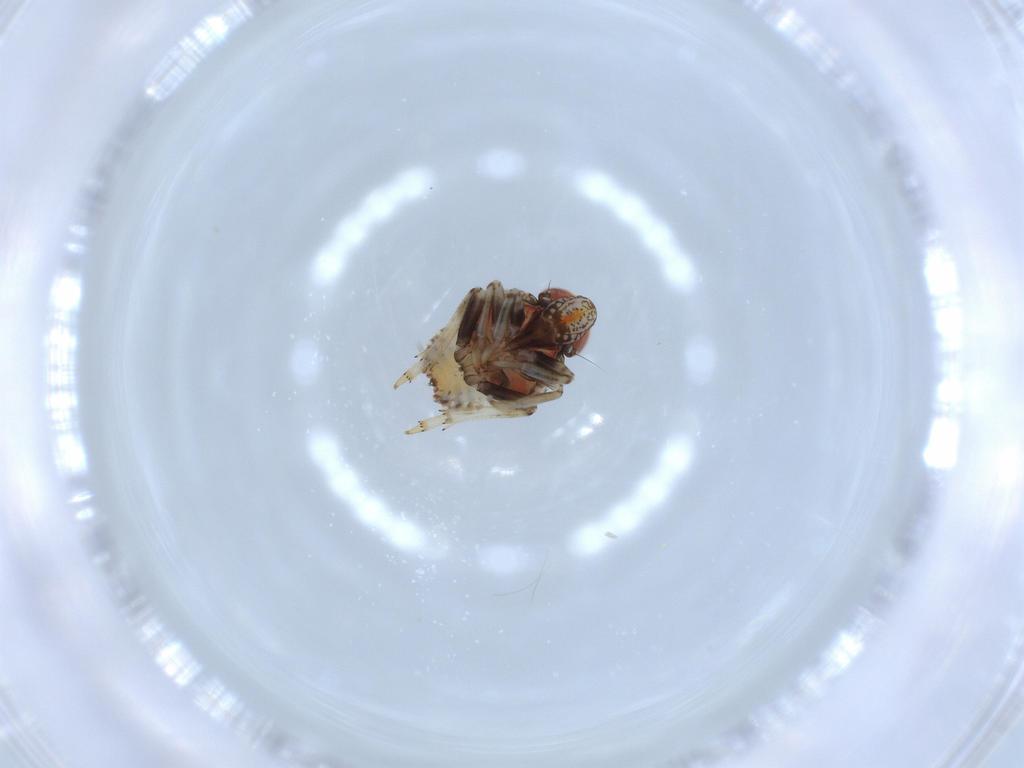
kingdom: Animalia
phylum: Arthropoda
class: Insecta
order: Hemiptera
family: Issidae
